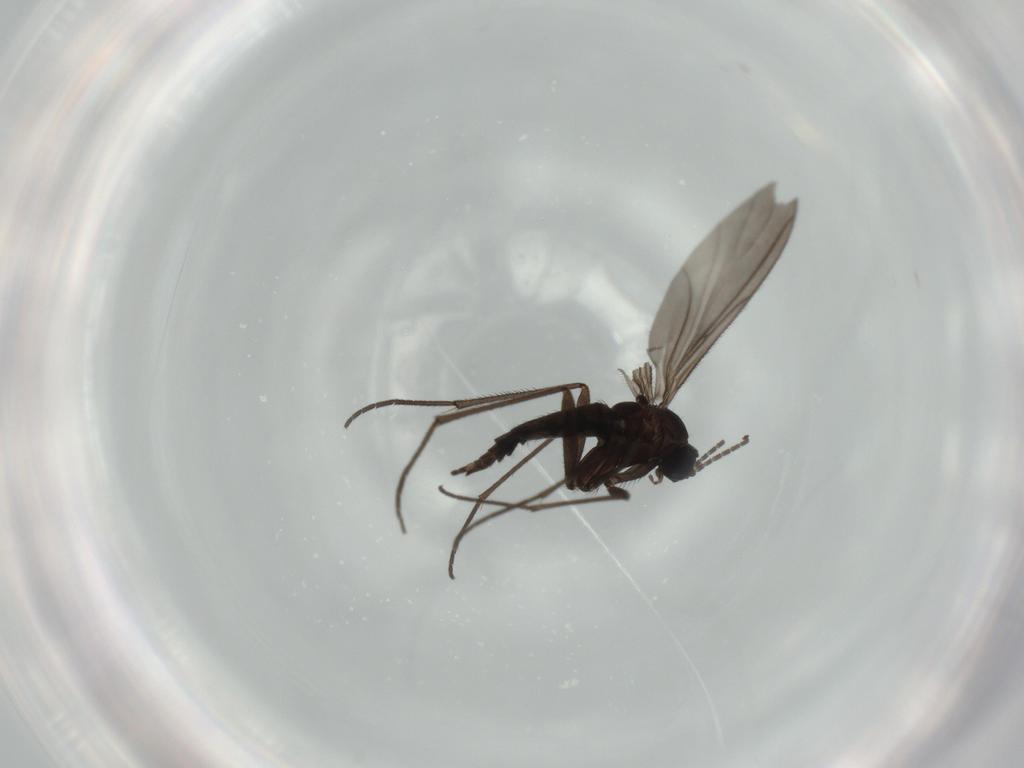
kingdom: Animalia
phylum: Arthropoda
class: Insecta
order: Diptera
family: Sciaridae
